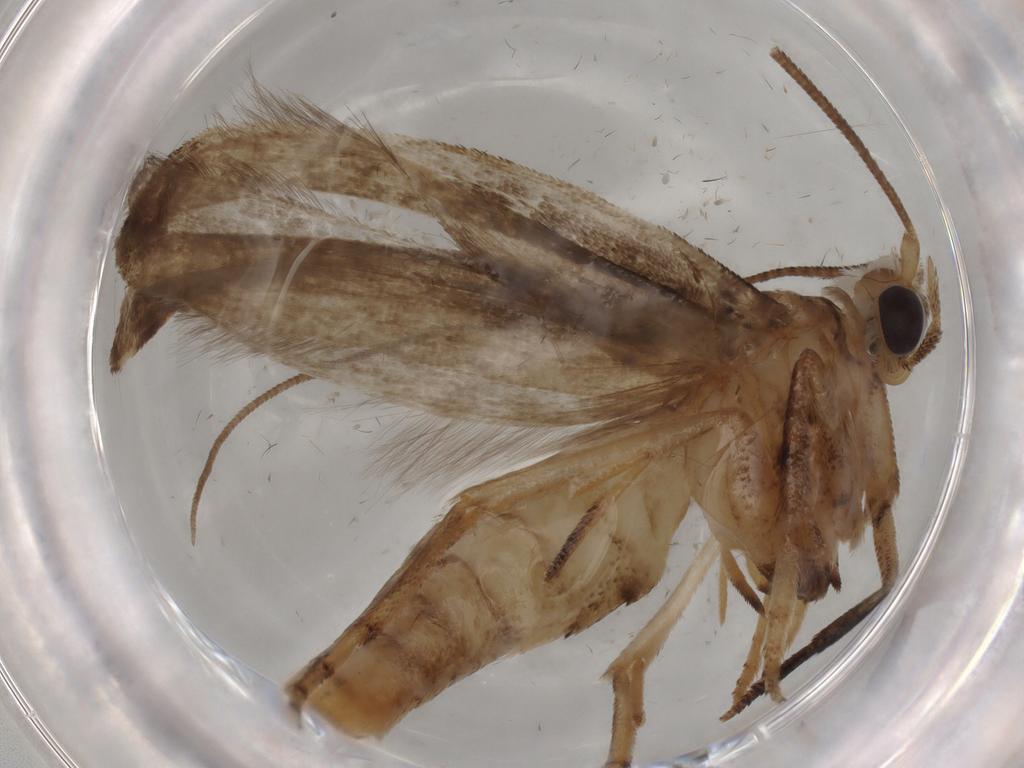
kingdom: Animalia
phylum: Arthropoda
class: Insecta
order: Lepidoptera
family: Yponomeutidae
